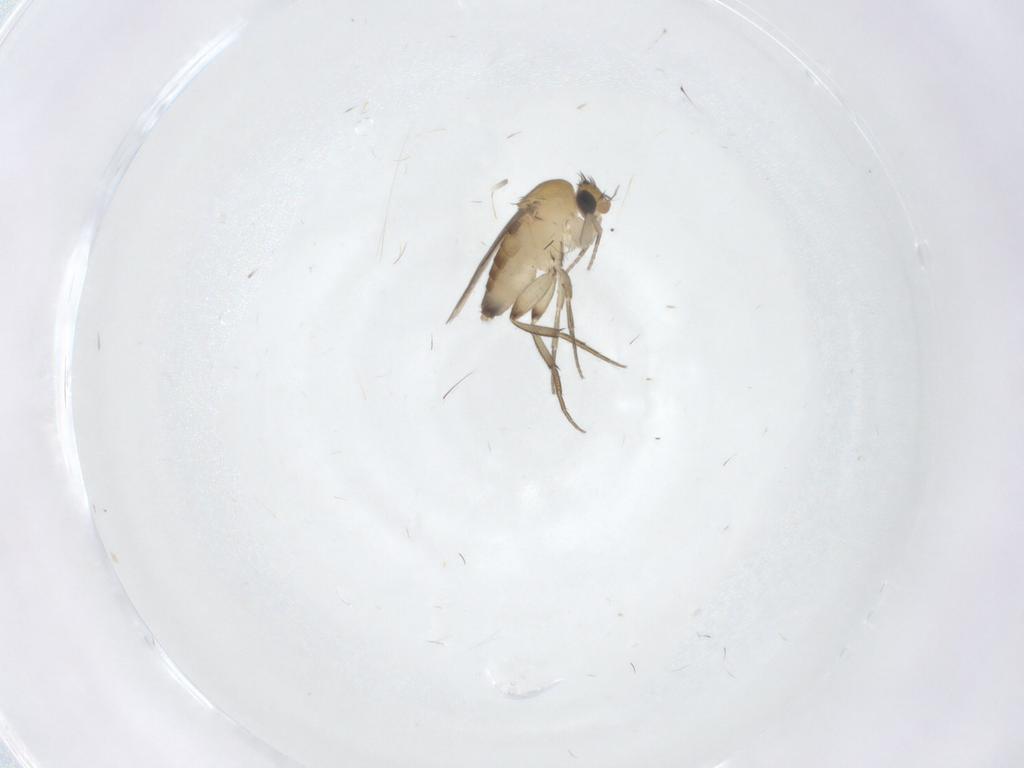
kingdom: Animalia
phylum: Arthropoda
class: Insecta
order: Diptera
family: Phoridae
